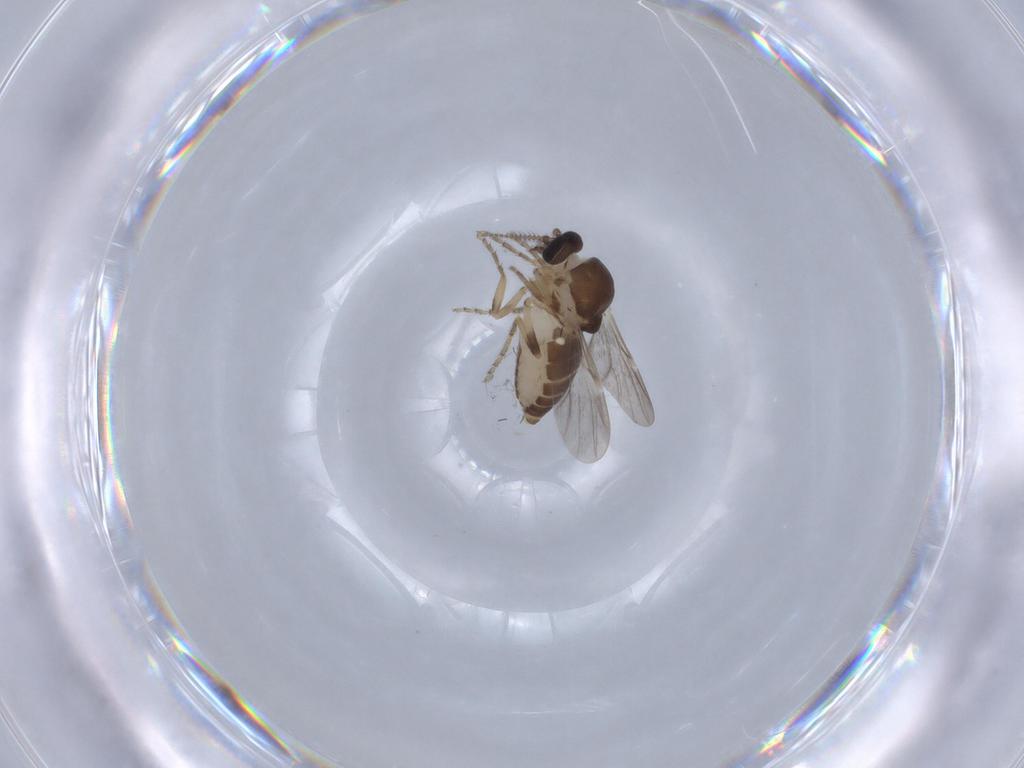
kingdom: Animalia
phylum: Arthropoda
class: Insecta
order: Diptera
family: Ceratopogonidae
